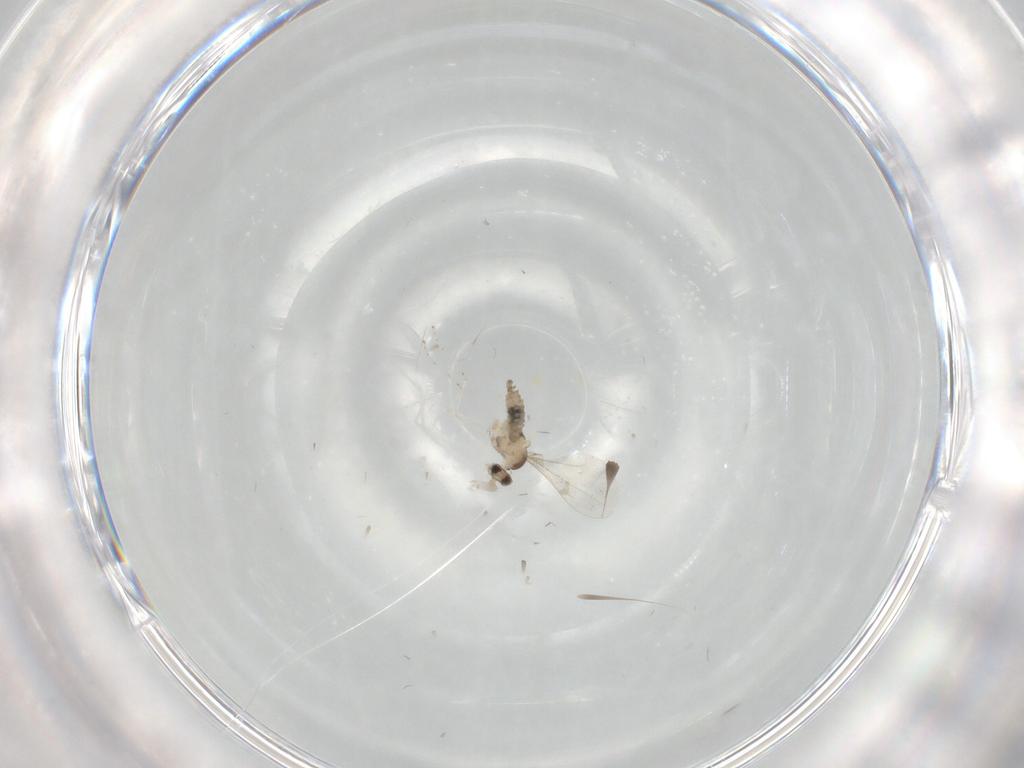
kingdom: Animalia
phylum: Arthropoda
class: Insecta
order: Diptera
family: Cecidomyiidae
